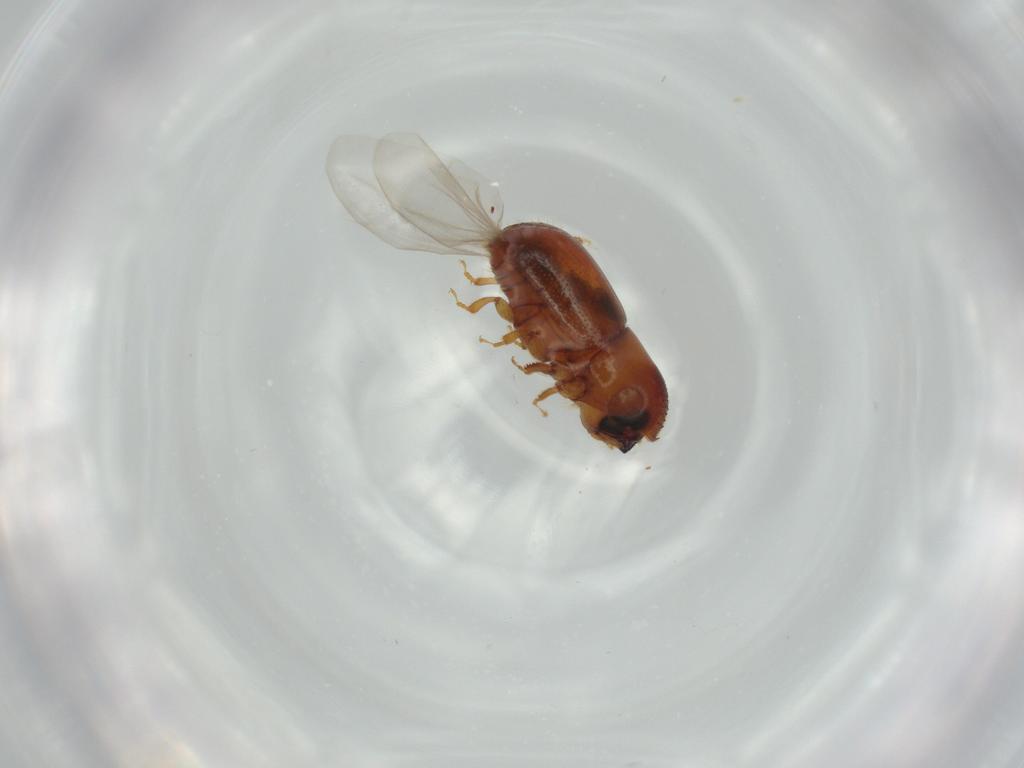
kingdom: Animalia
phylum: Arthropoda
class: Insecta
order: Coleoptera
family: Curculionidae
